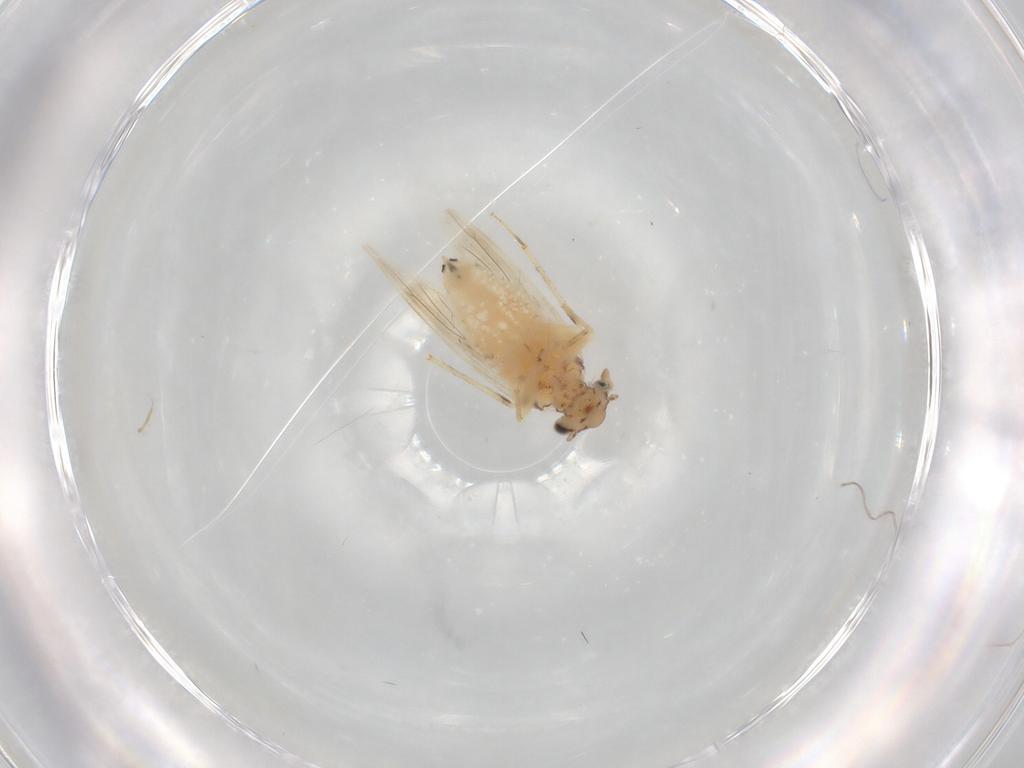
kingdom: Animalia
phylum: Arthropoda
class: Insecta
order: Psocodea
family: Lepidopsocidae
